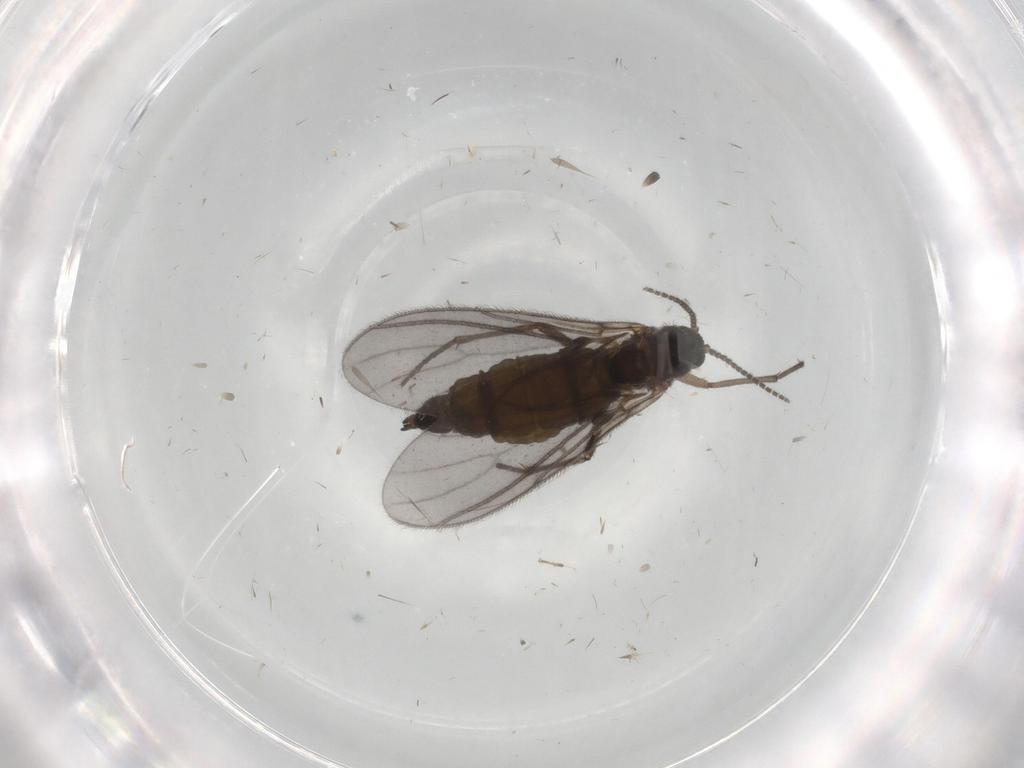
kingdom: Animalia
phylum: Arthropoda
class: Insecta
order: Diptera
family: Sciaridae
